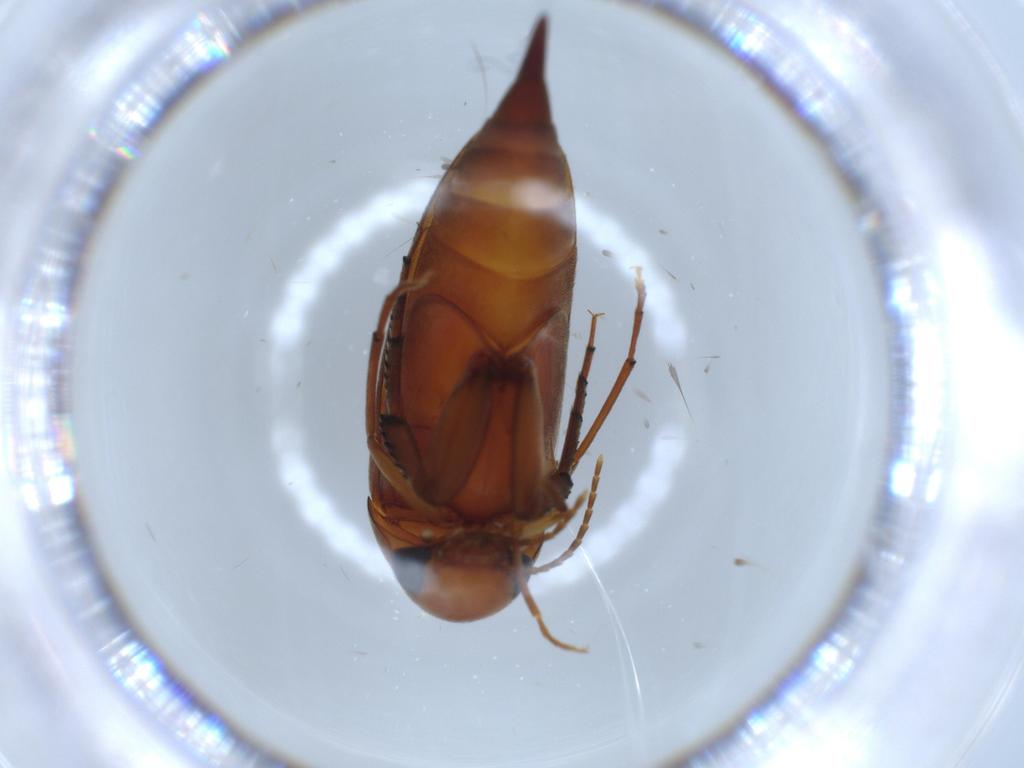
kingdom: Animalia
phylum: Arthropoda
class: Insecta
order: Coleoptera
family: Mordellidae
